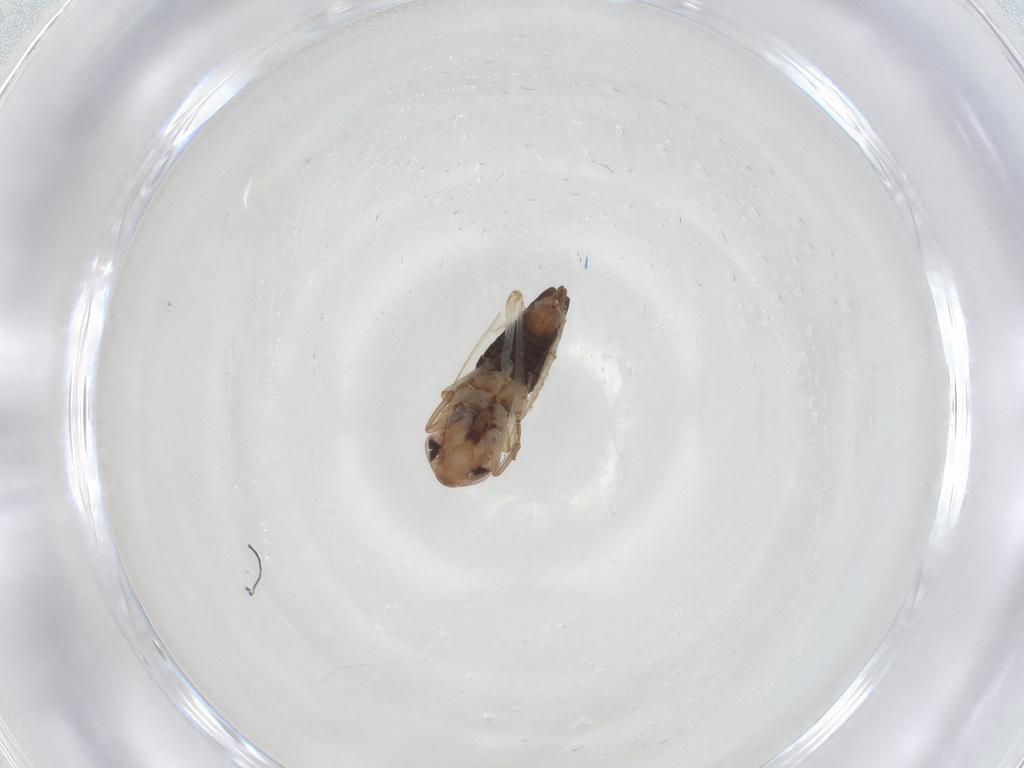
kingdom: Animalia
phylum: Arthropoda
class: Insecta
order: Hemiptera
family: Cicadellidae
